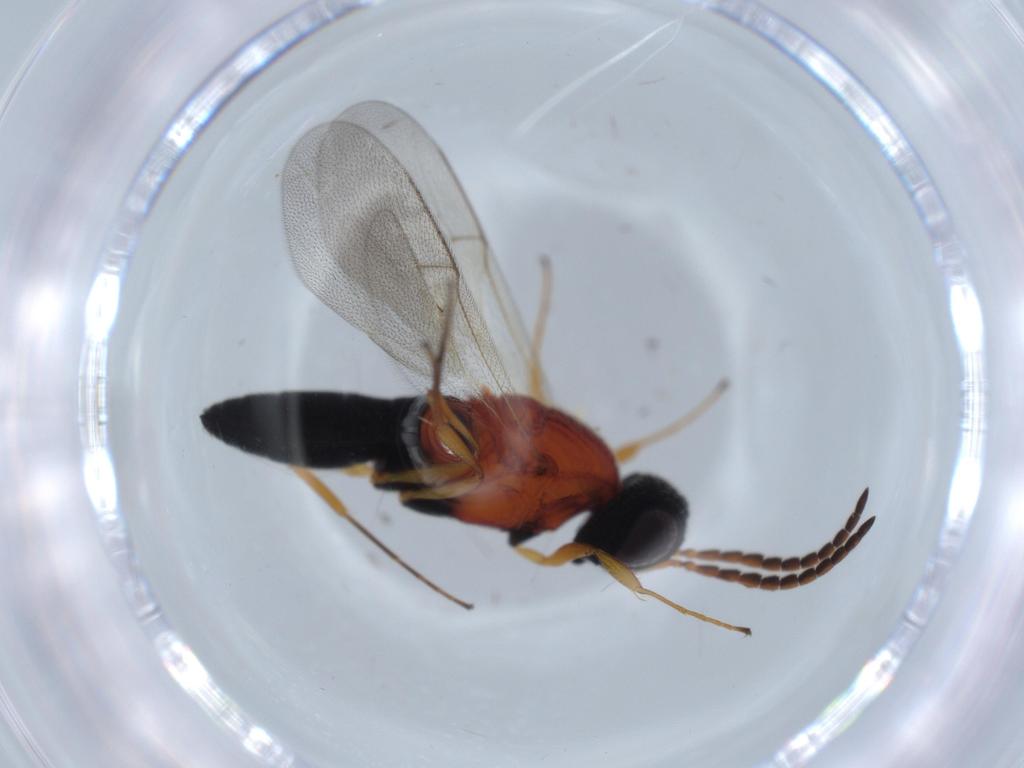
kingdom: Animalia
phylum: Arthropoda
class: Insecta
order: Hymenoptera
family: Scelionidae
